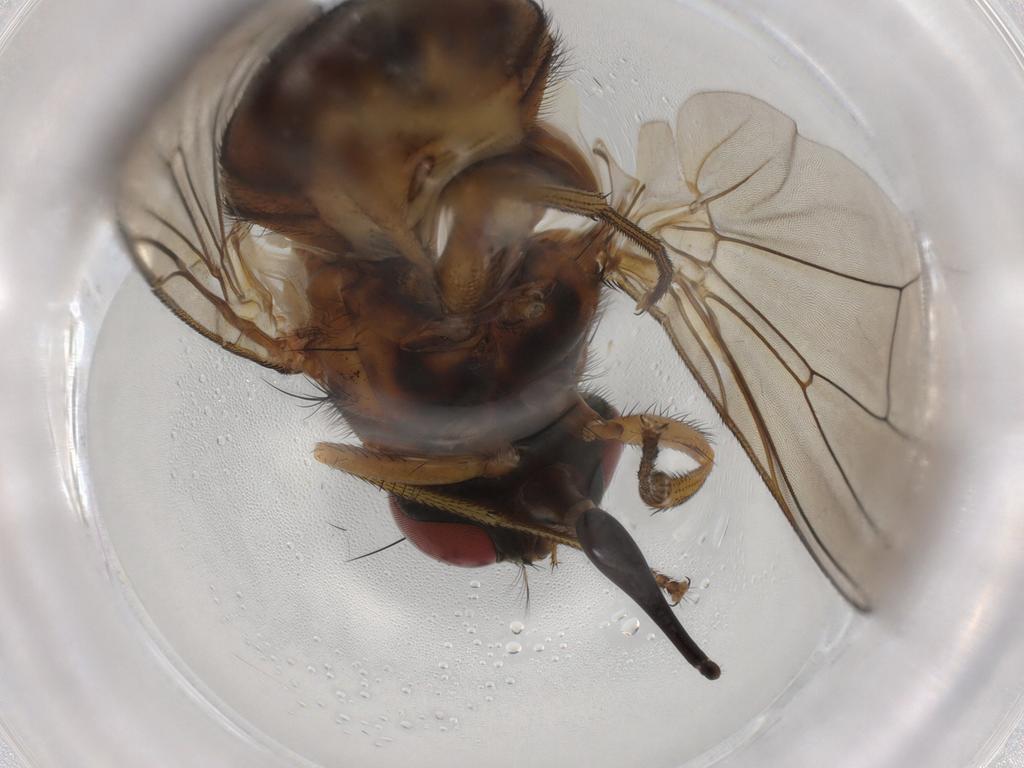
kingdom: Animalia
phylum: Arthropoda
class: Insecta
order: Diptera
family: Muscidae
